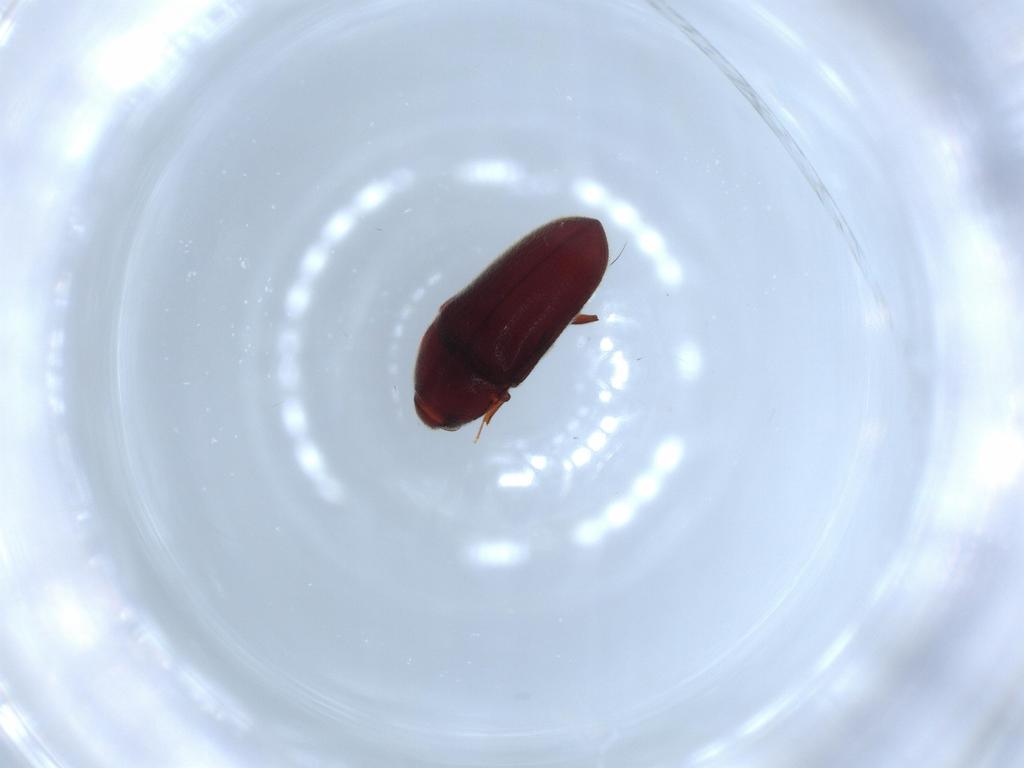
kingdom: Animalia
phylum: Arthropoda
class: Insecta
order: Coleoptera
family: Throscidae
